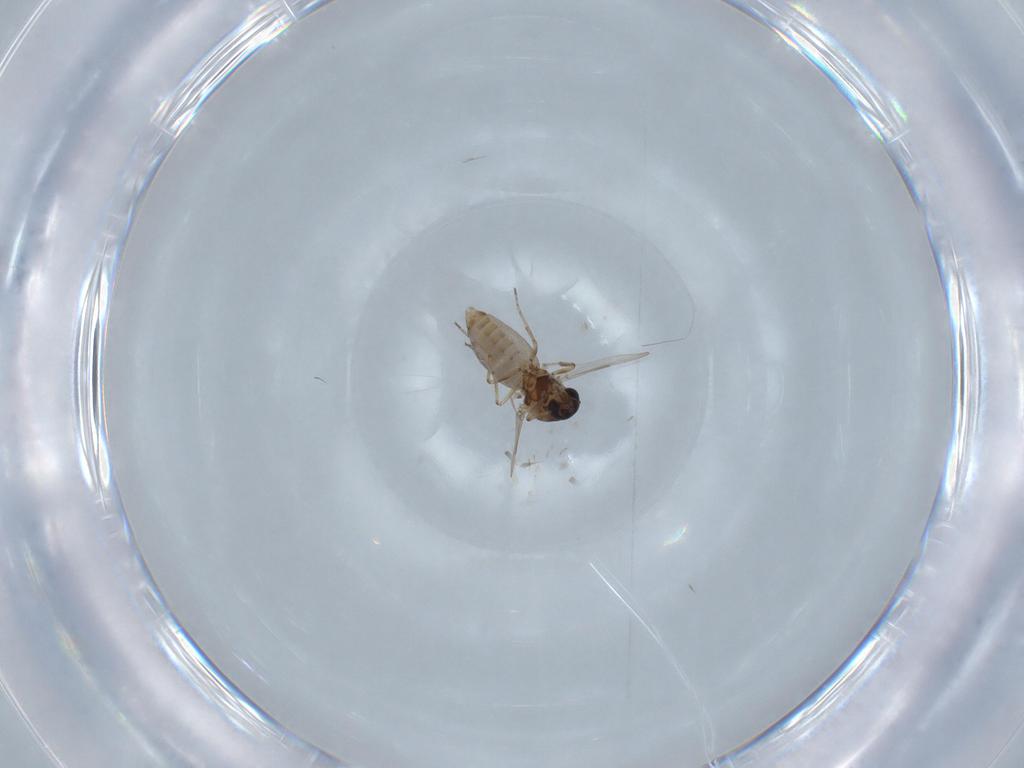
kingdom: Animalia
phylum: Arthropoda
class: Insecta
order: Diptera
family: Ceratopogonidae
